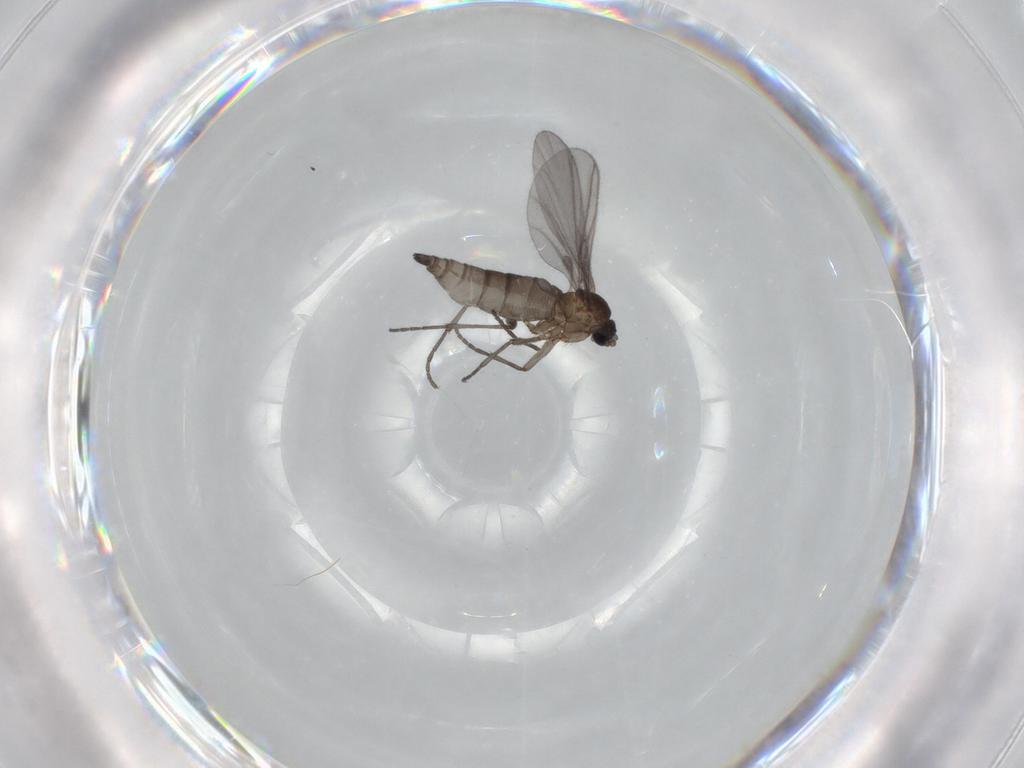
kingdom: Animalia
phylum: Arthropoda
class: Insecta
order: Diptera
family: Sciaridae
